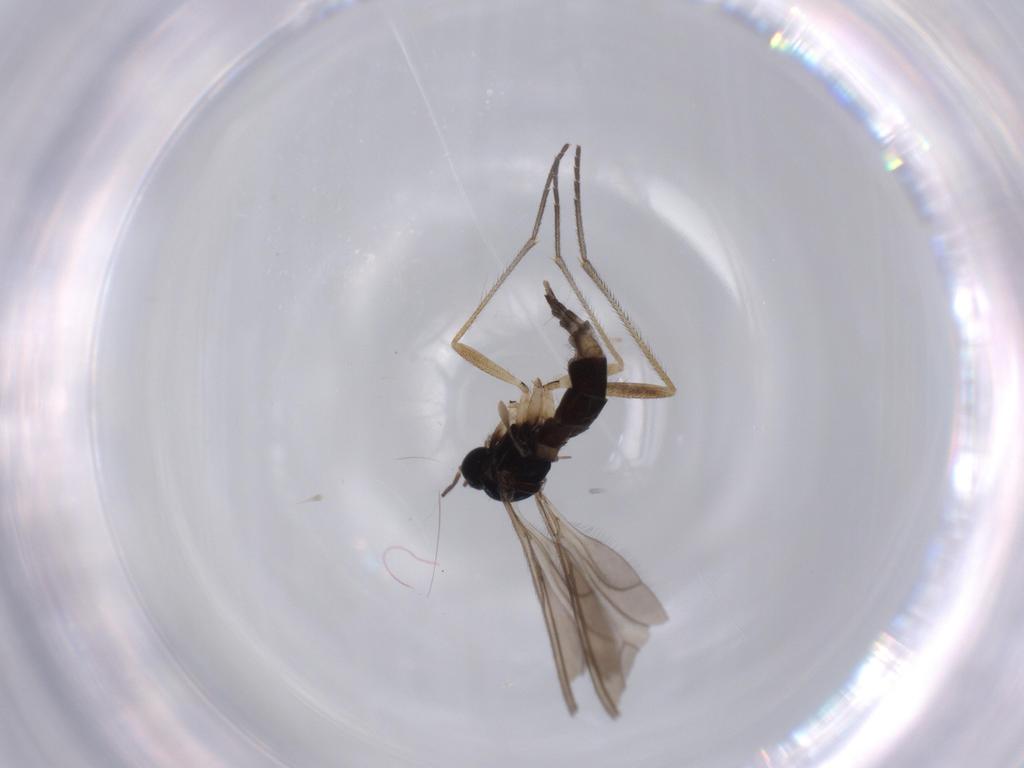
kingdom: Animalia
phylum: Arthropoda
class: Insecta
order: Diptera
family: Sciaridae
